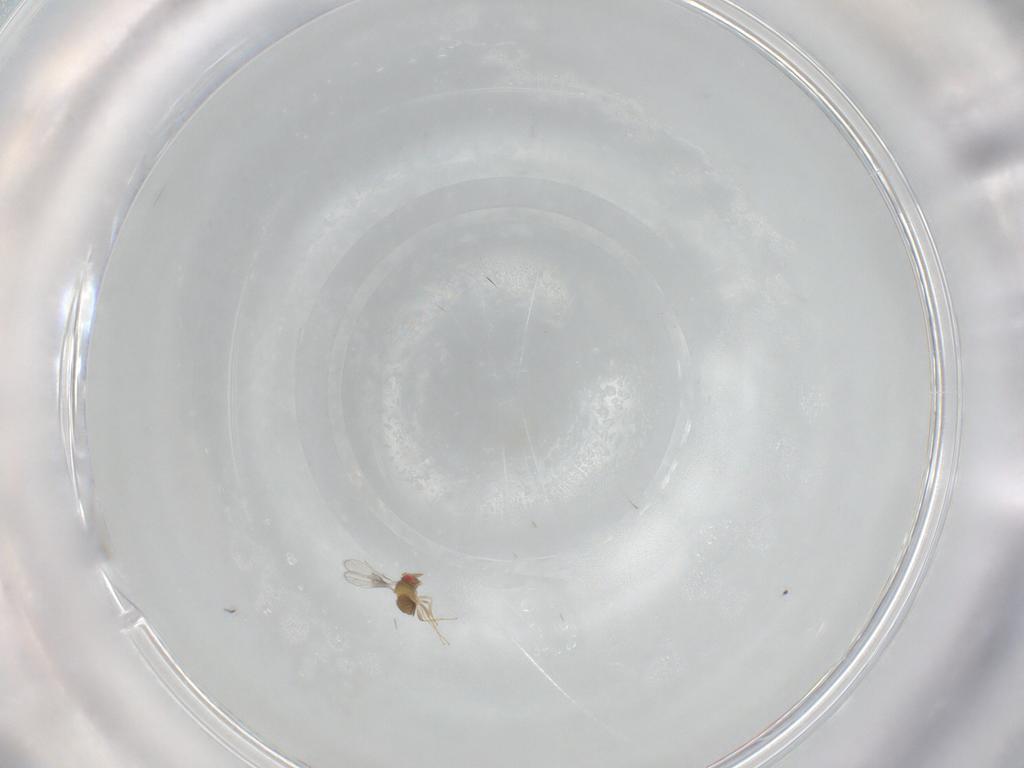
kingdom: Animalia
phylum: Arthropoda
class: Insecta
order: Hymenoptera
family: Trichogrammatidae
